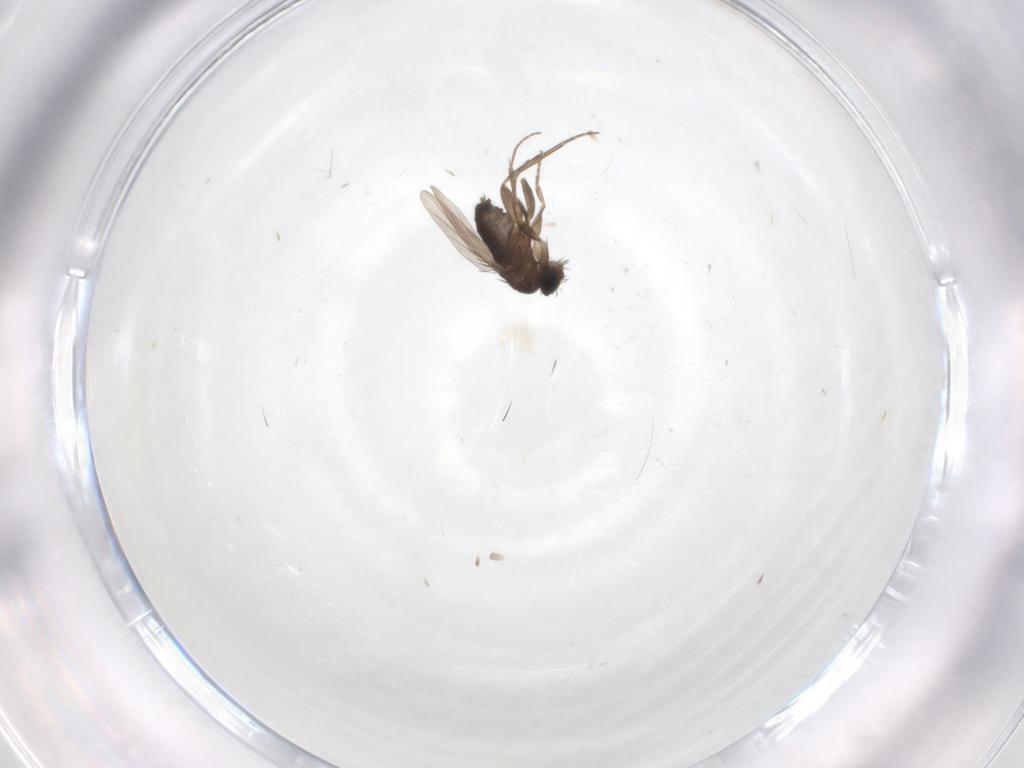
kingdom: Animalia
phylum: Arthropoda
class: Insecta
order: Diptera
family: Phoridae
